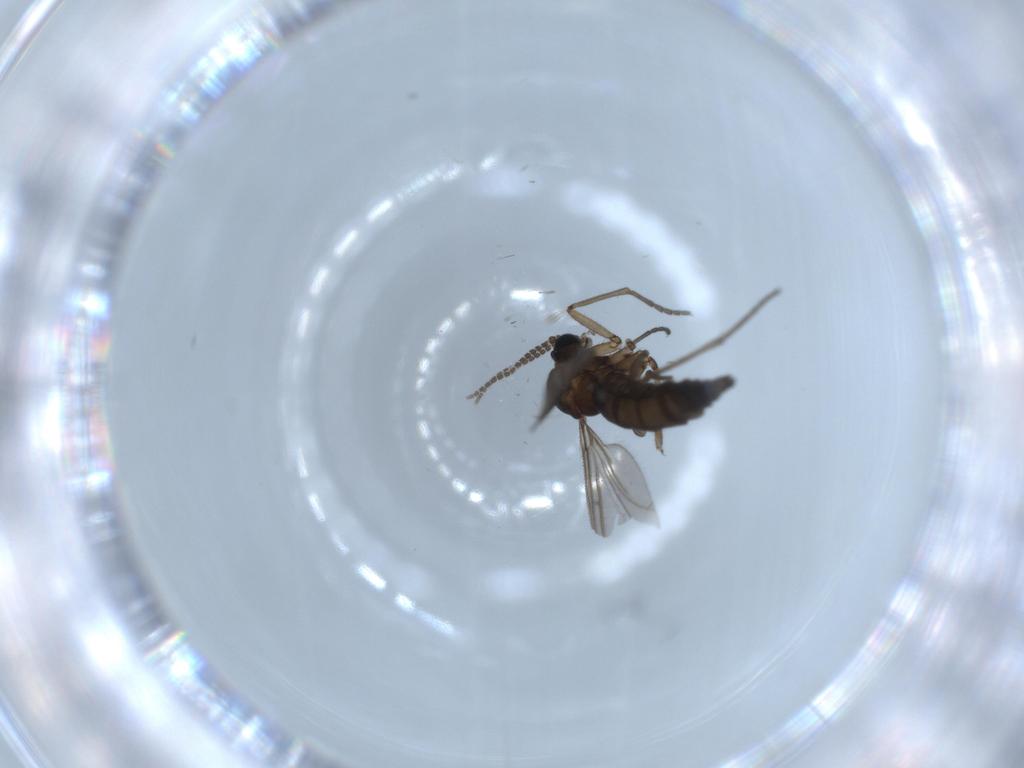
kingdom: Animalia
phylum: Arthropoda
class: Insecta
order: Diptera
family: Sciaridae
